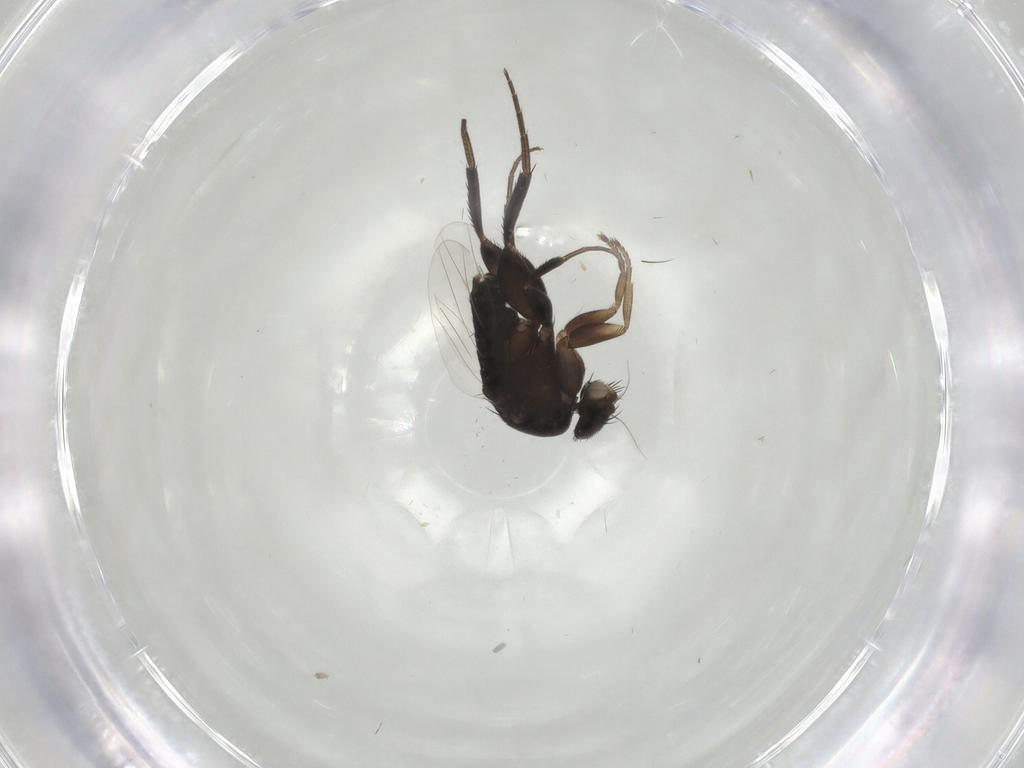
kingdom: Animalia
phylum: Arthropoda
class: Insecta
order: Diptera
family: Phoridae
